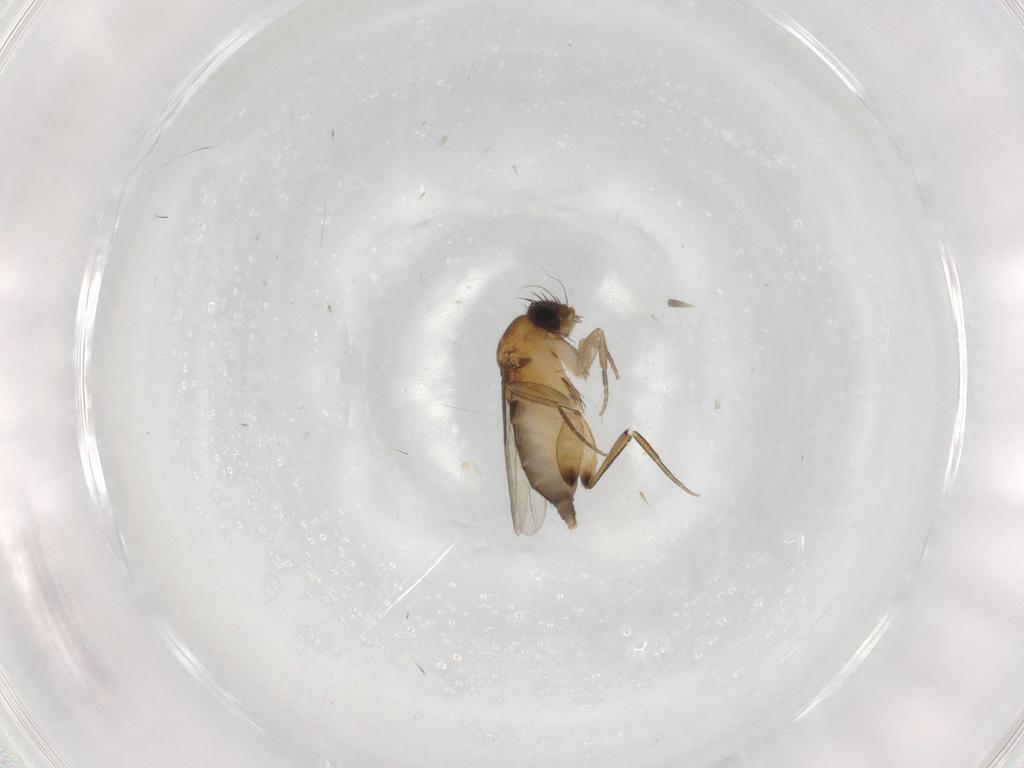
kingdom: Animalia
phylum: Arthropoda
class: Insecta
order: Diptera
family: Phoridae
